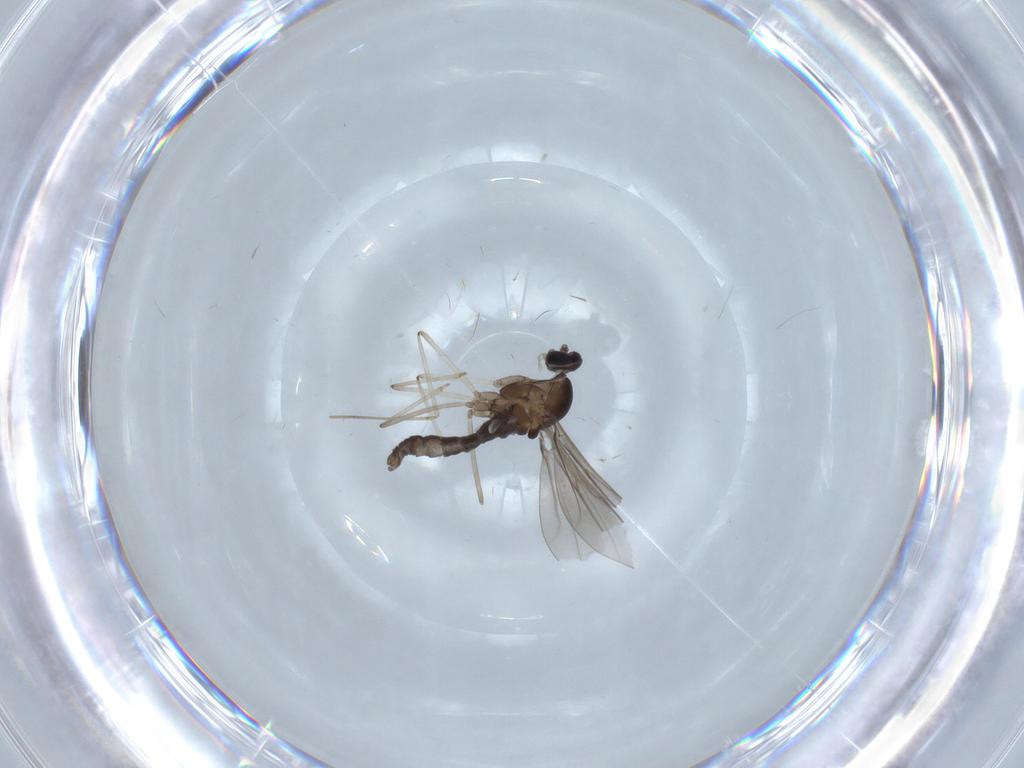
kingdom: Animalia
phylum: Arthropoda
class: Insecta
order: Diptera
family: Cecidomyiidae
